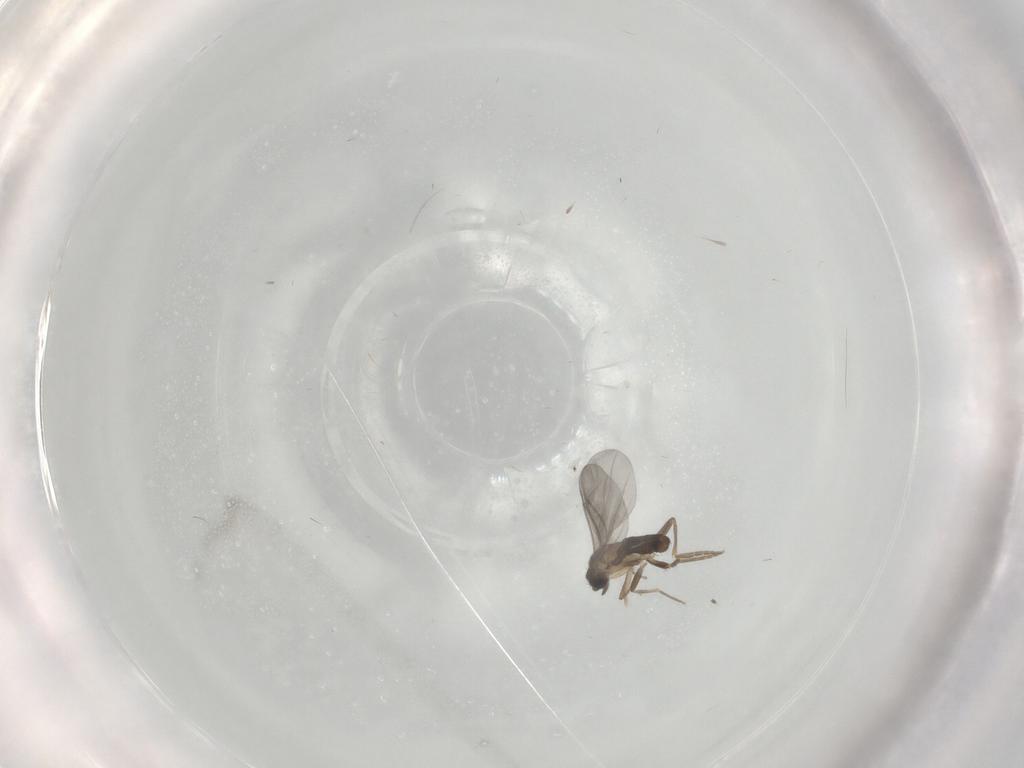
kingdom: Animalia
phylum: Arthropoda
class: Insecta
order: Diptera
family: Phoridae
